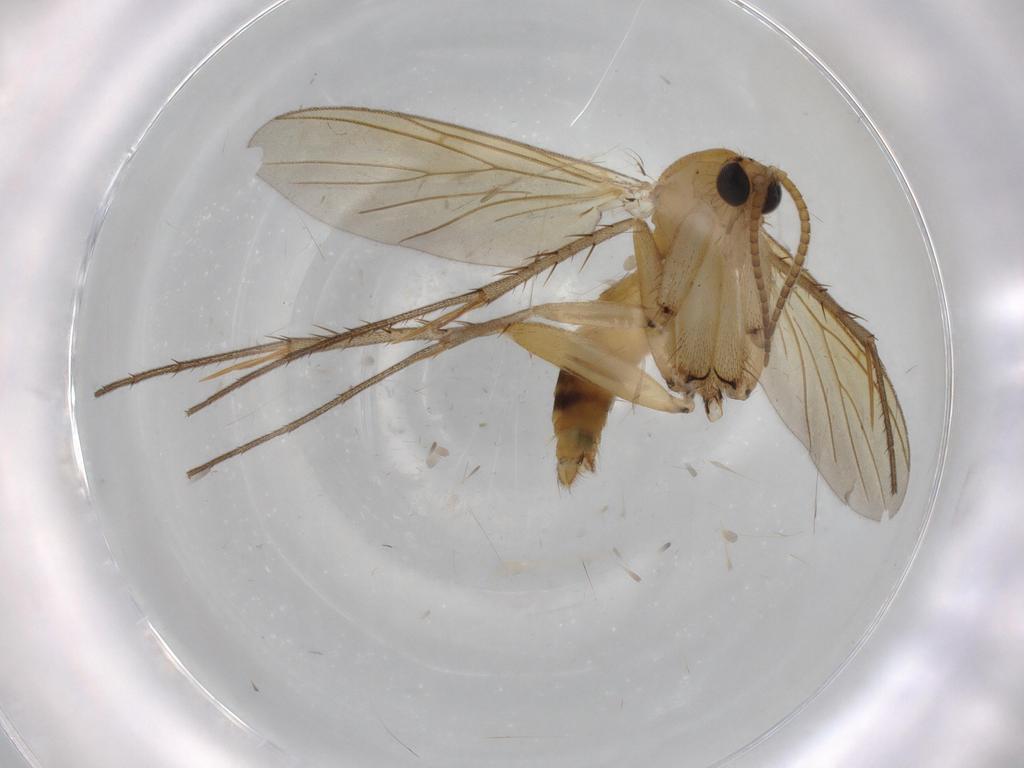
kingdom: Animalia
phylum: Arthropoda
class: Insecta
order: Diptera
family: Mycetophilidae
